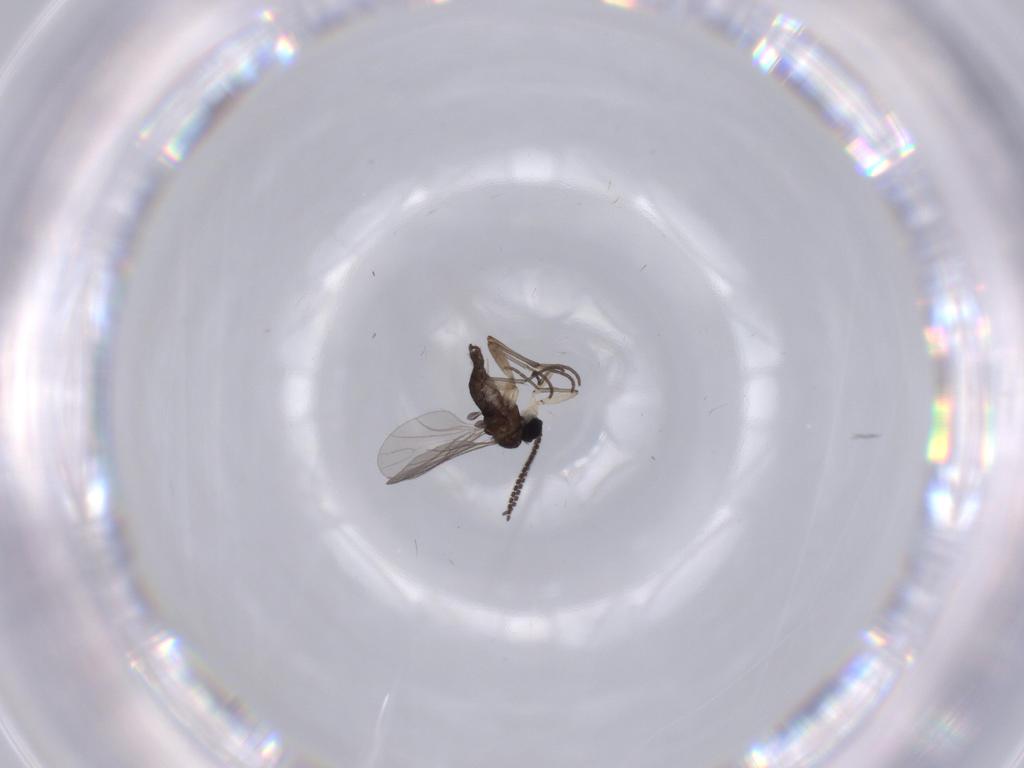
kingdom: Animalia
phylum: Arthropoda
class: Insecta
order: Diptera
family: Sciaridae
